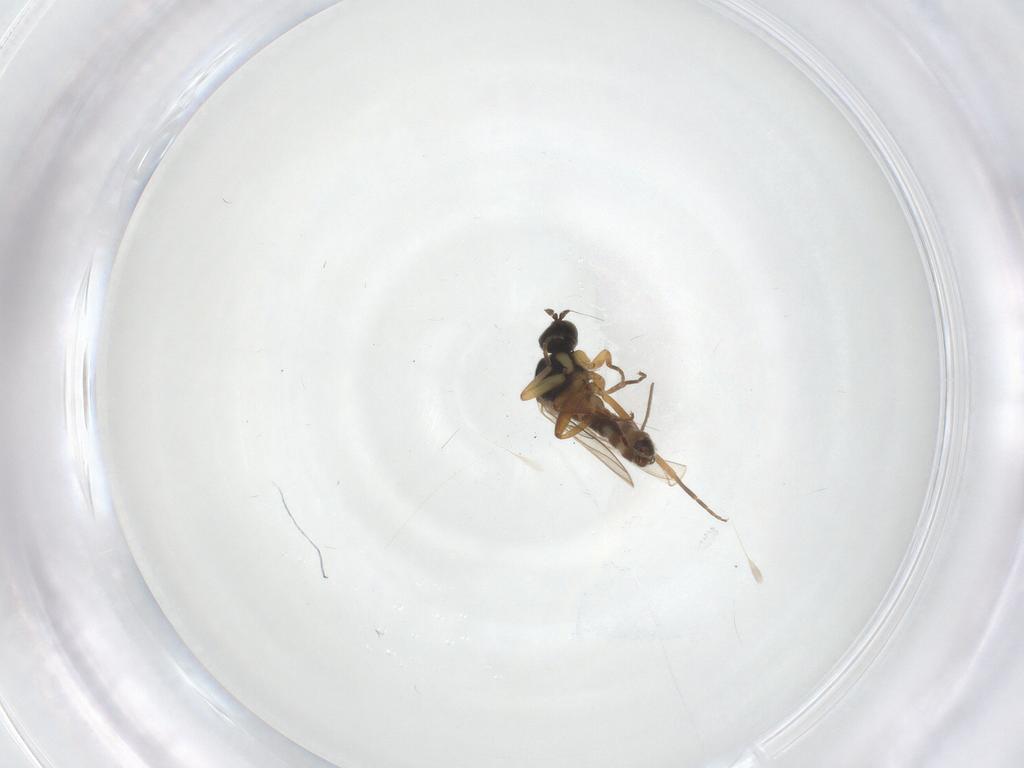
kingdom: Animalia
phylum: Arthropoda
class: Insecta
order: Diptera
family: Hybotidae
